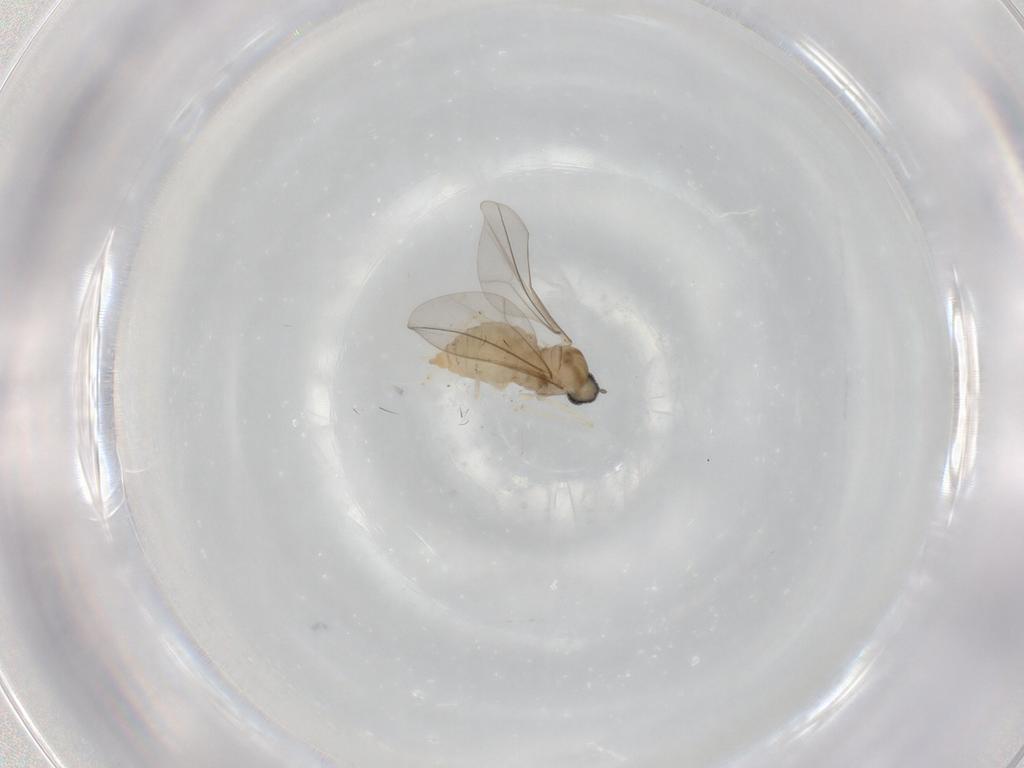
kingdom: Animalia
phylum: Arthropoda
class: Insecta
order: Diptera
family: Cecidomyiidae
